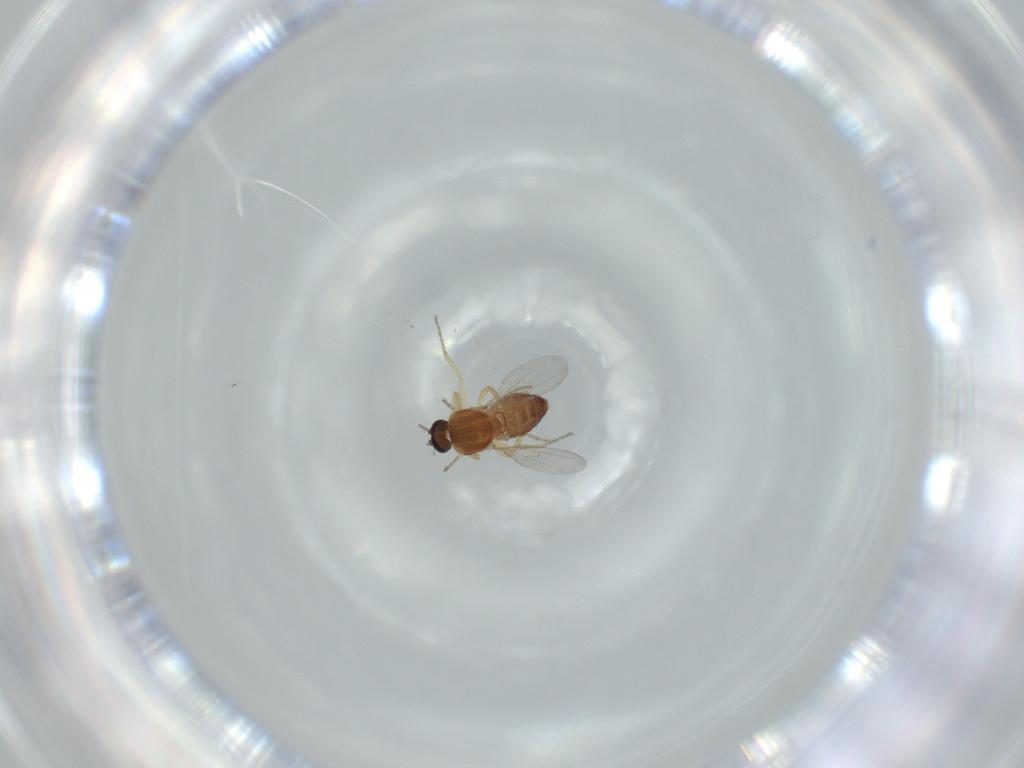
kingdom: Animalia
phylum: Arthropoda
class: Insecta
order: Diptera
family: Ceratopogonidae
